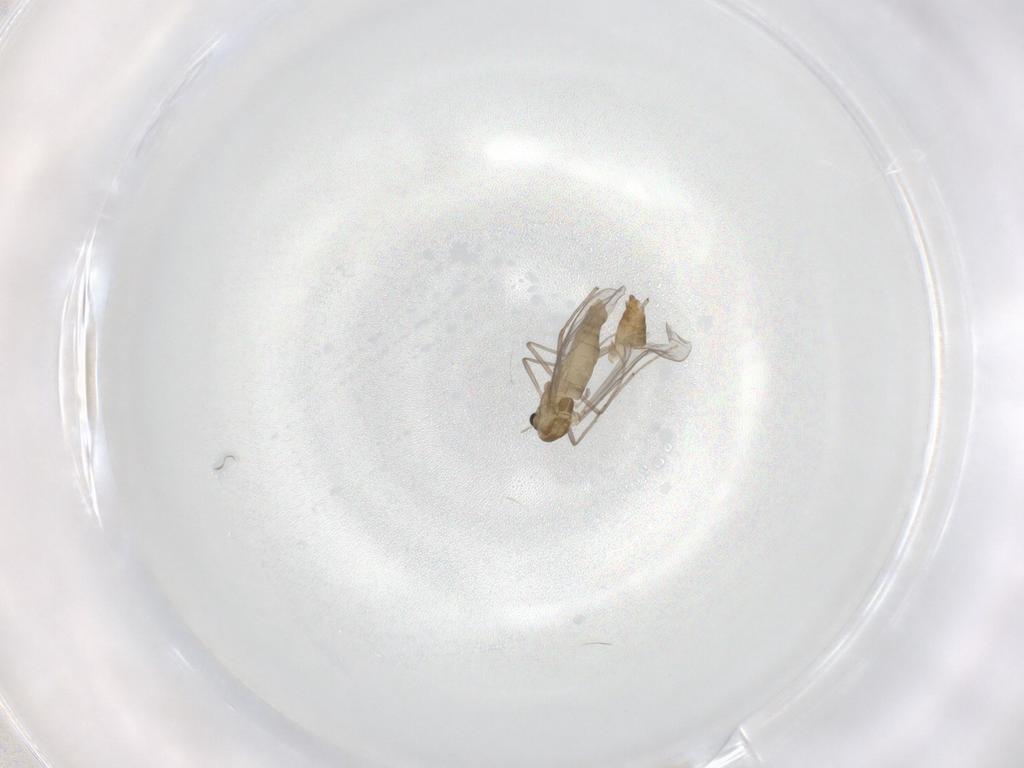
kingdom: Animalia
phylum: Arthropoda
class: Insecta
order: Diptera
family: Chironomidae
